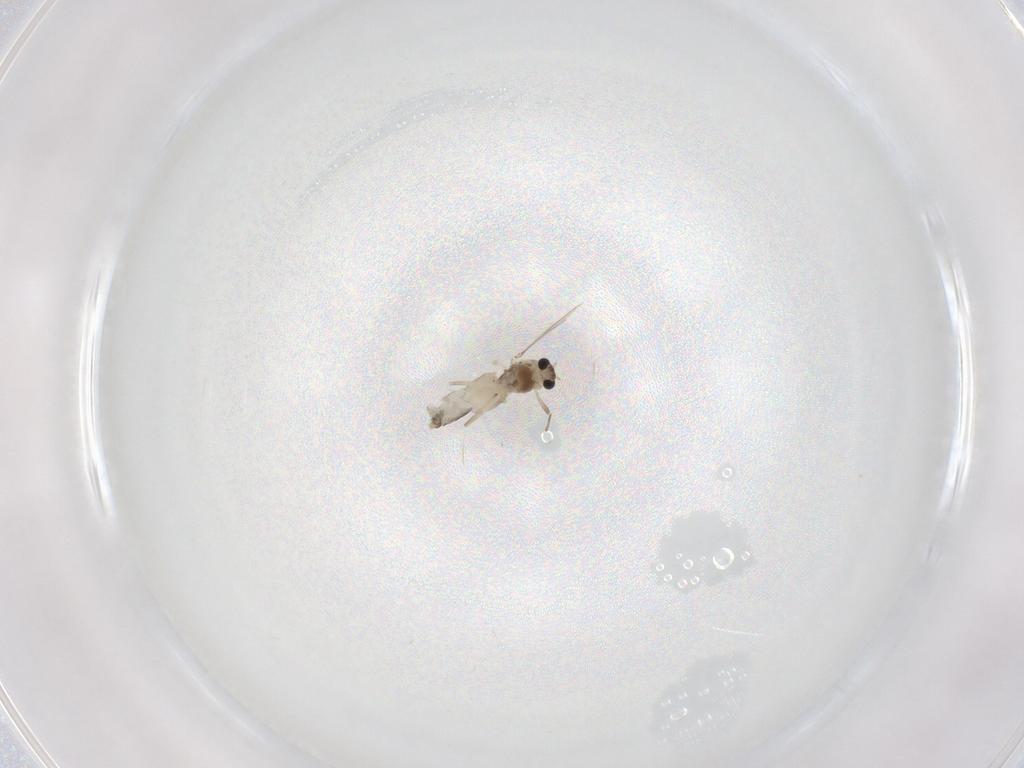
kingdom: Animalia
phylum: Arthropoda
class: Insecta
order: Diptera
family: Chironomidae
